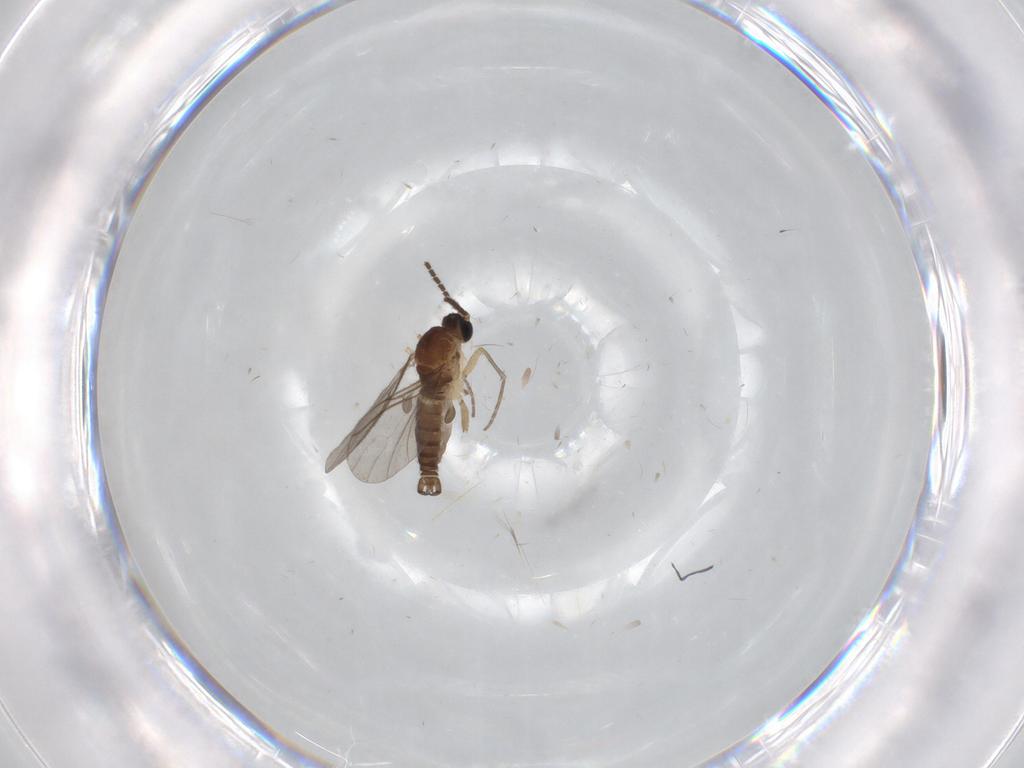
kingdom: Animalia
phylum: Arthropoda
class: Insecta
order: Diptera
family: Sciaridae
